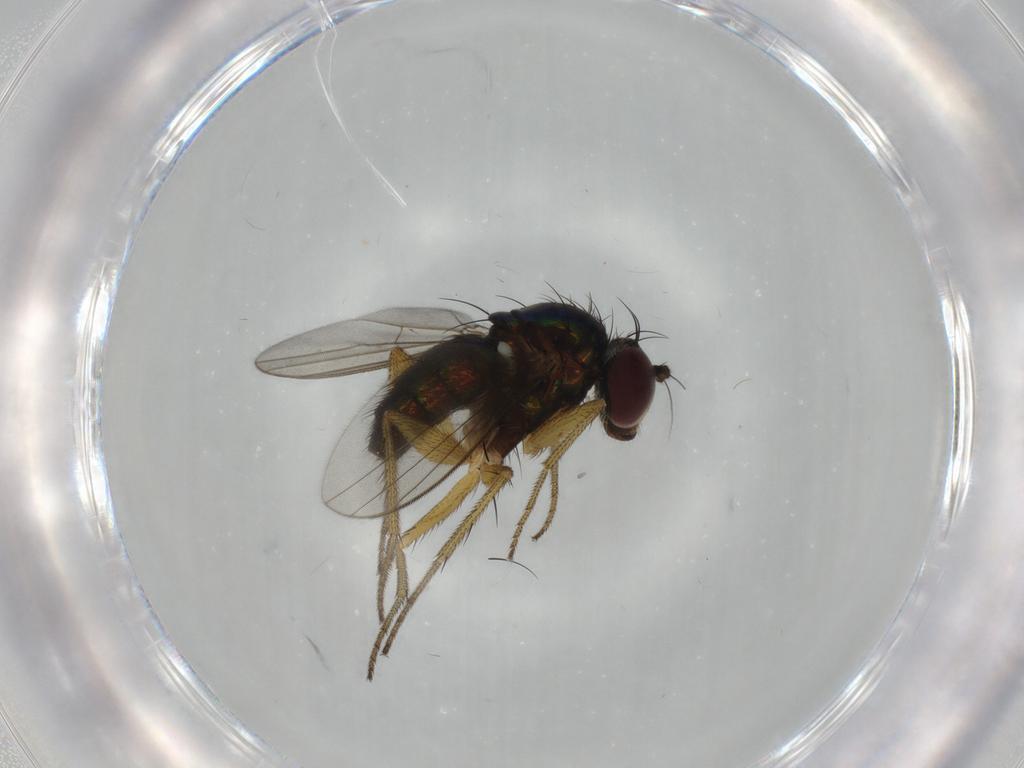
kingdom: Animalia
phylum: Arthropoda
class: Insecta
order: Diptera
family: Dolichopodidae
